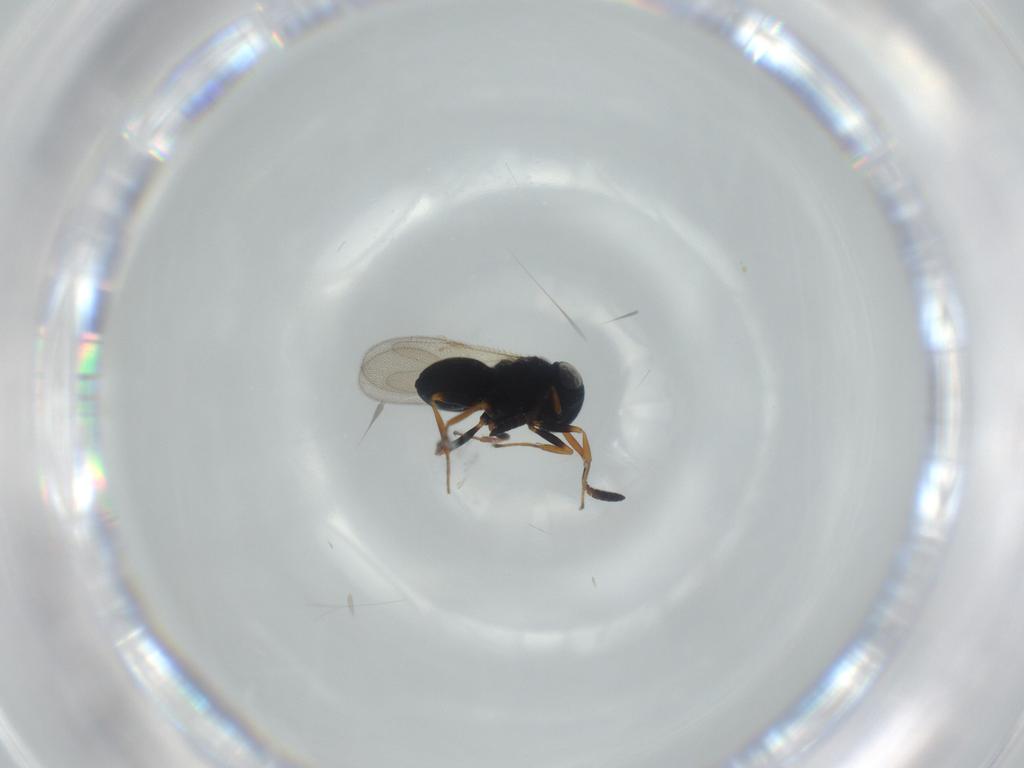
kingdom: Animalia
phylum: Arthropoda
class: Insecta
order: Hymenoptera
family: Scelionidae
